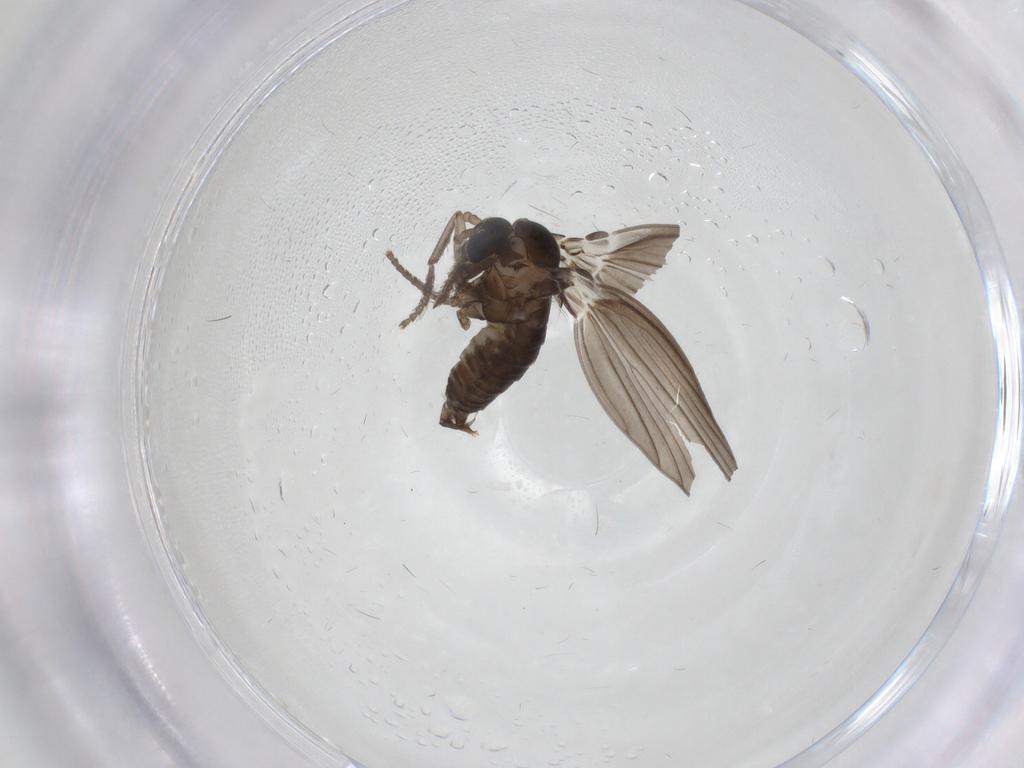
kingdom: Animalia
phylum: Arthropoda
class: Insecta
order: Diptera
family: Psychodidae
